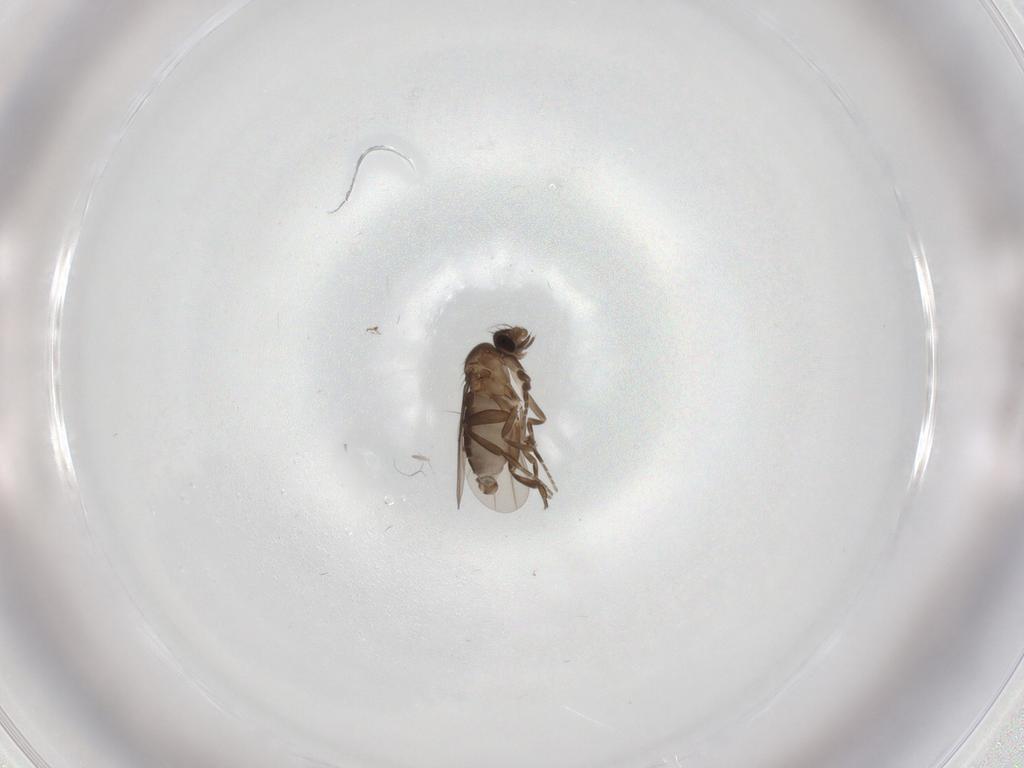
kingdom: Animalia
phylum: Arthropoda
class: Insecta
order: Diptera
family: Phoridae
